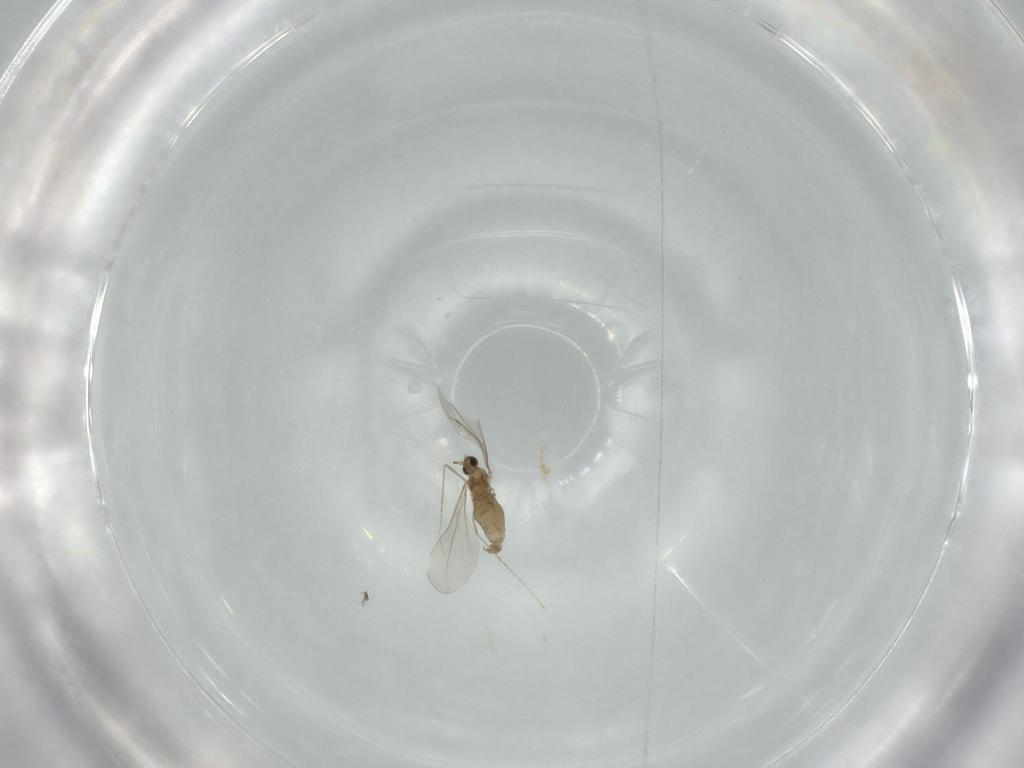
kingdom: Animalia
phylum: Arthropoda
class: Insecta
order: Diptera
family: Cecidomyiidae
